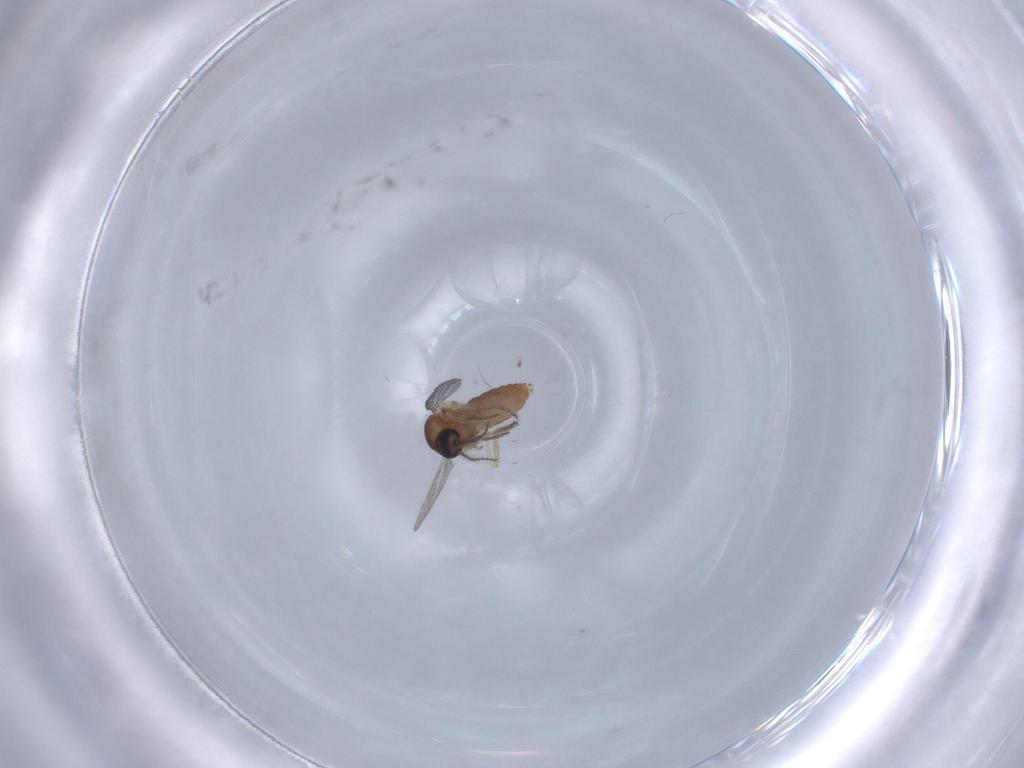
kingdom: Animalia
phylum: Arthropoda
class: Insecta
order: Diptera
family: Ceratopogonidae
